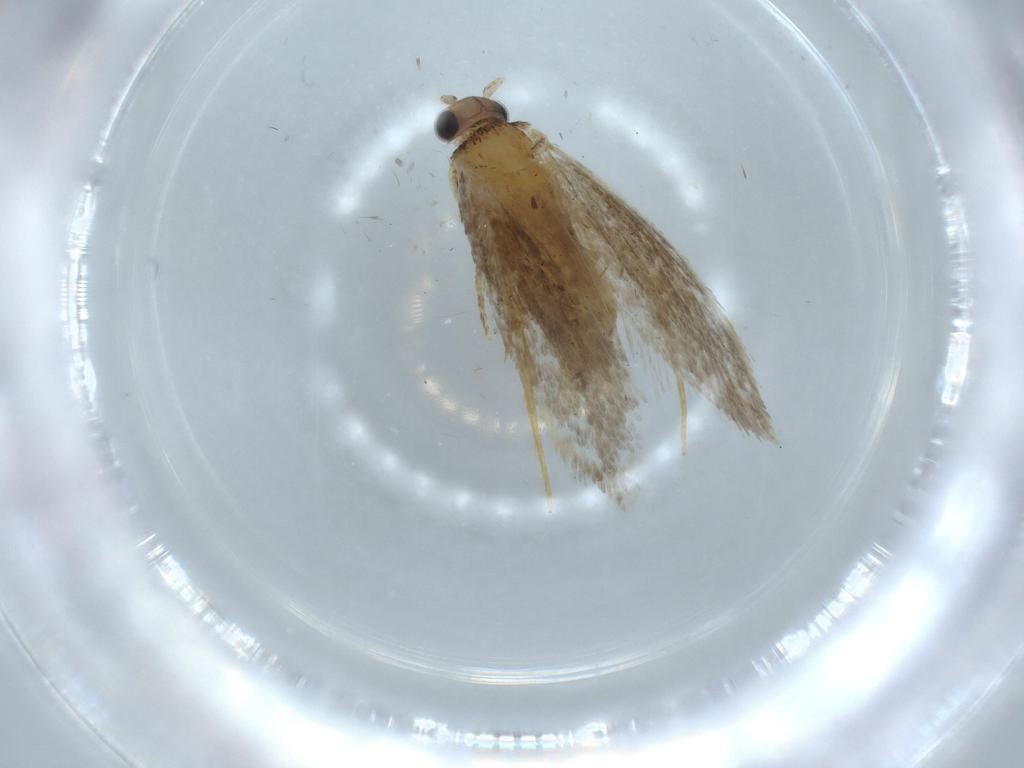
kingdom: Animalia
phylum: Arthropoda
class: Insecta
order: Lepidoptera
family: Tineidae
